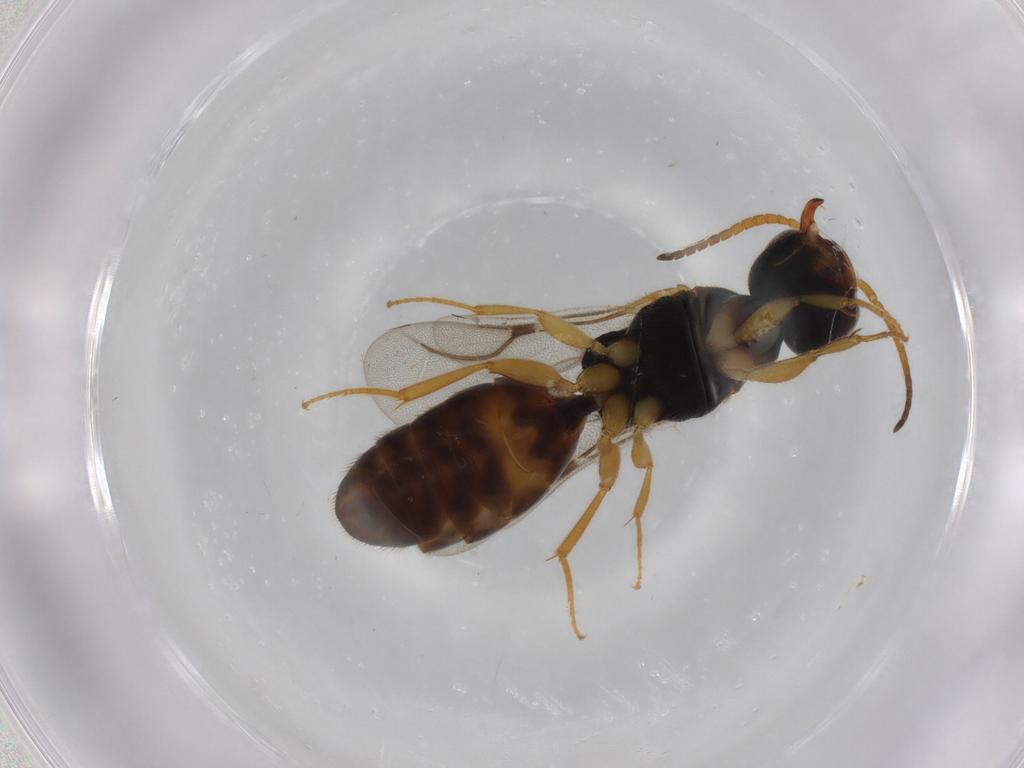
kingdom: Animalia
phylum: Arthropoda
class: Insecta
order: Hymenoptera
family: Bethylidae
